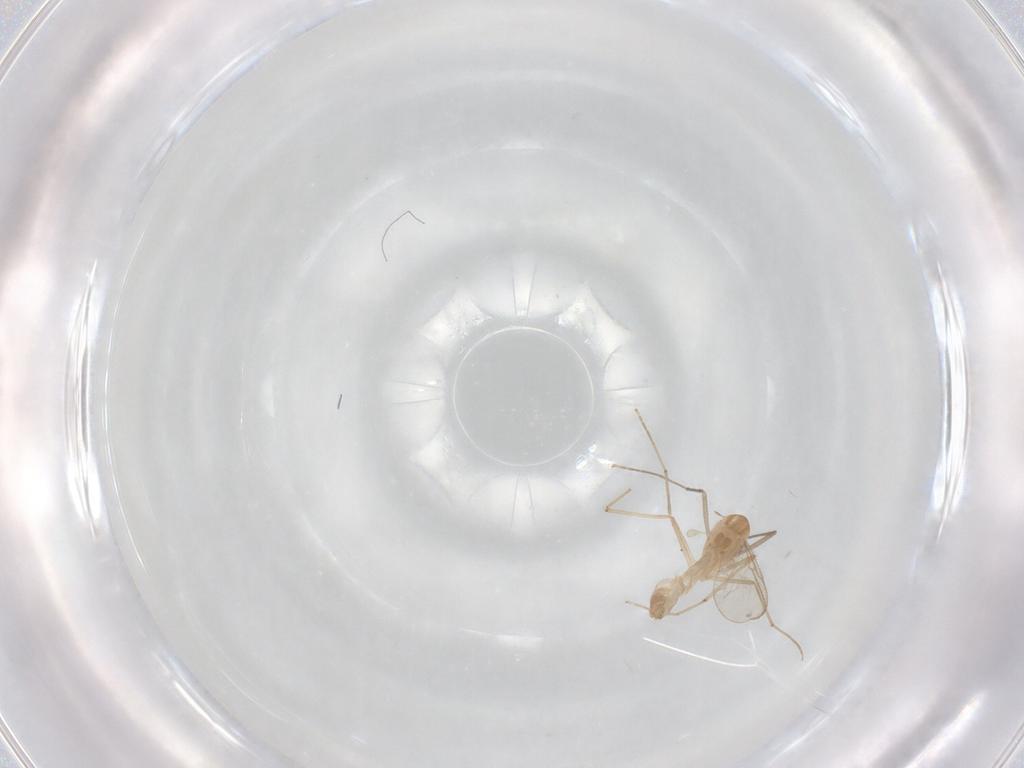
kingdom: Animalia
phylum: Arthropoda
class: Insecta
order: Diptera
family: Chironomidae
